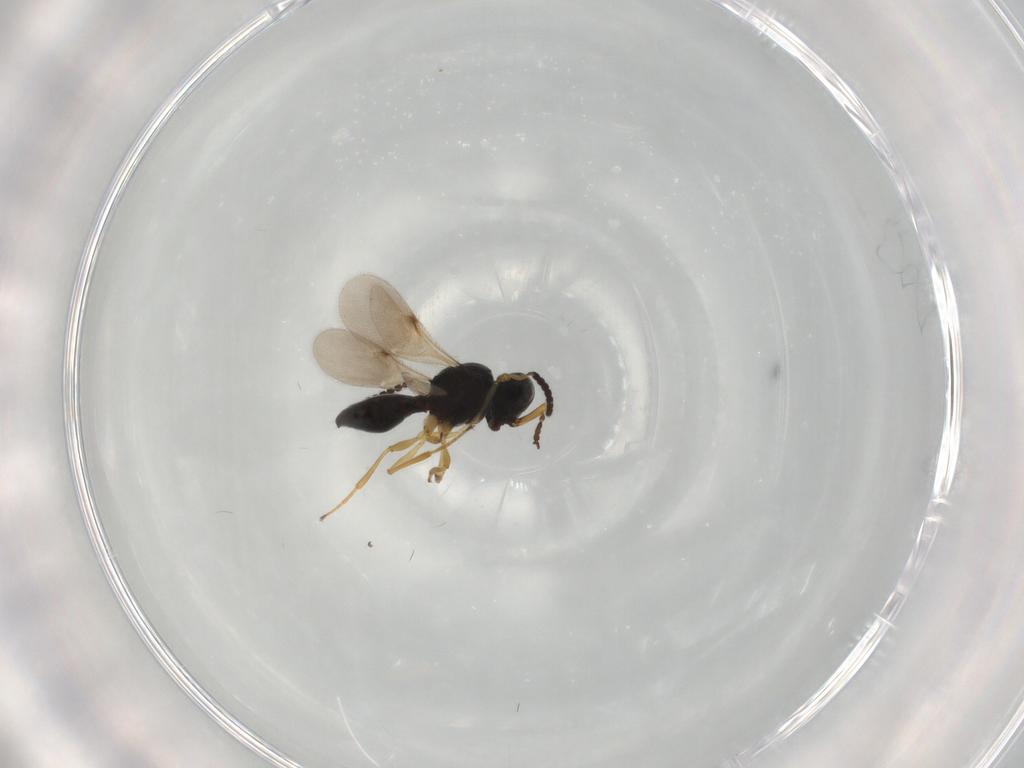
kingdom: Animalia
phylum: Arthropoda
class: Insecta
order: Hymenoptera
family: Scelionidae
